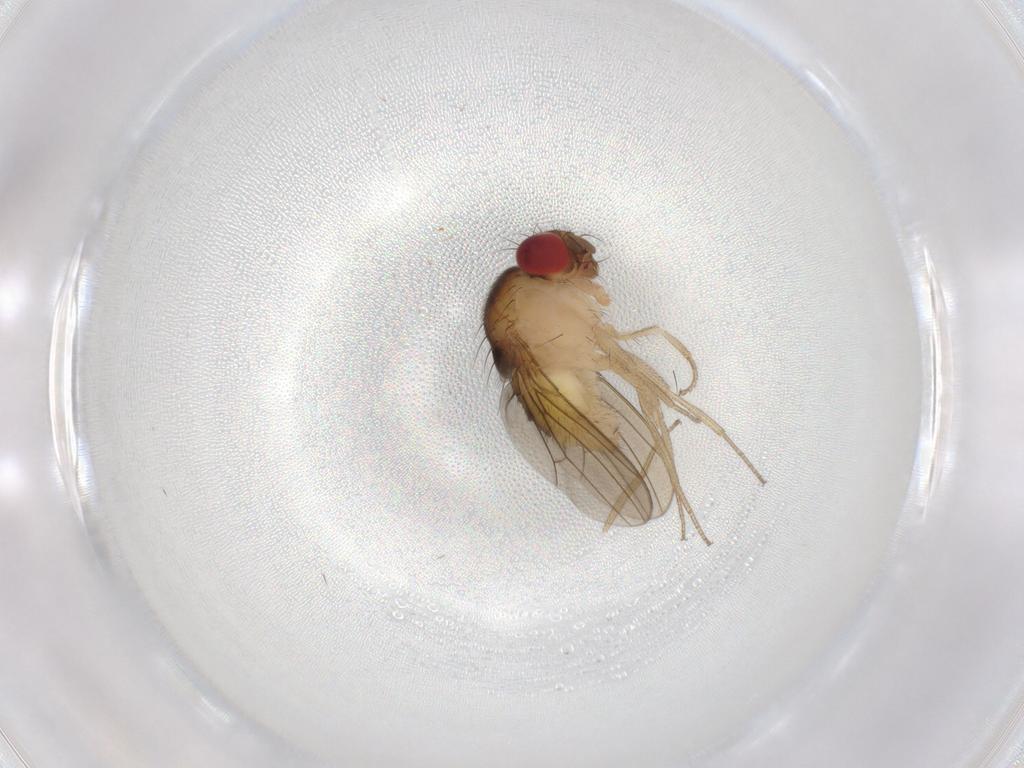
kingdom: Animalia
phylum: Arthropoda
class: Insecta
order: Diptera
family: Drosophilidae
